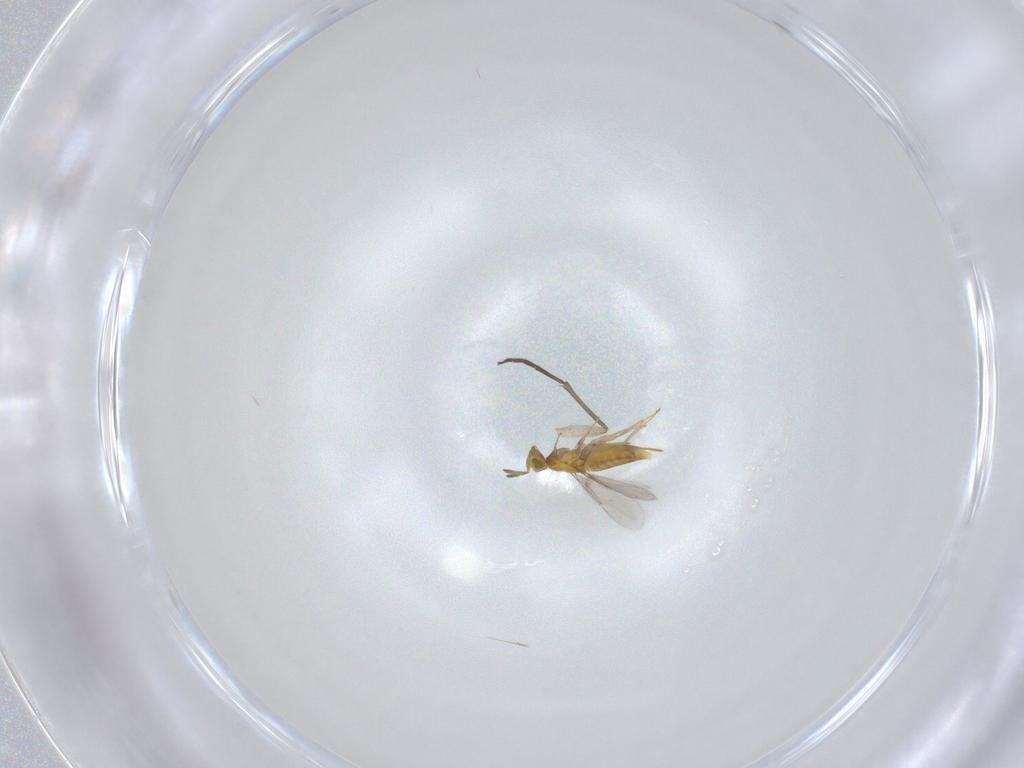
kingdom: Animalia
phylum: Arthropoda
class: Insecta
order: Hymenoptera
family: Aphelinidae
